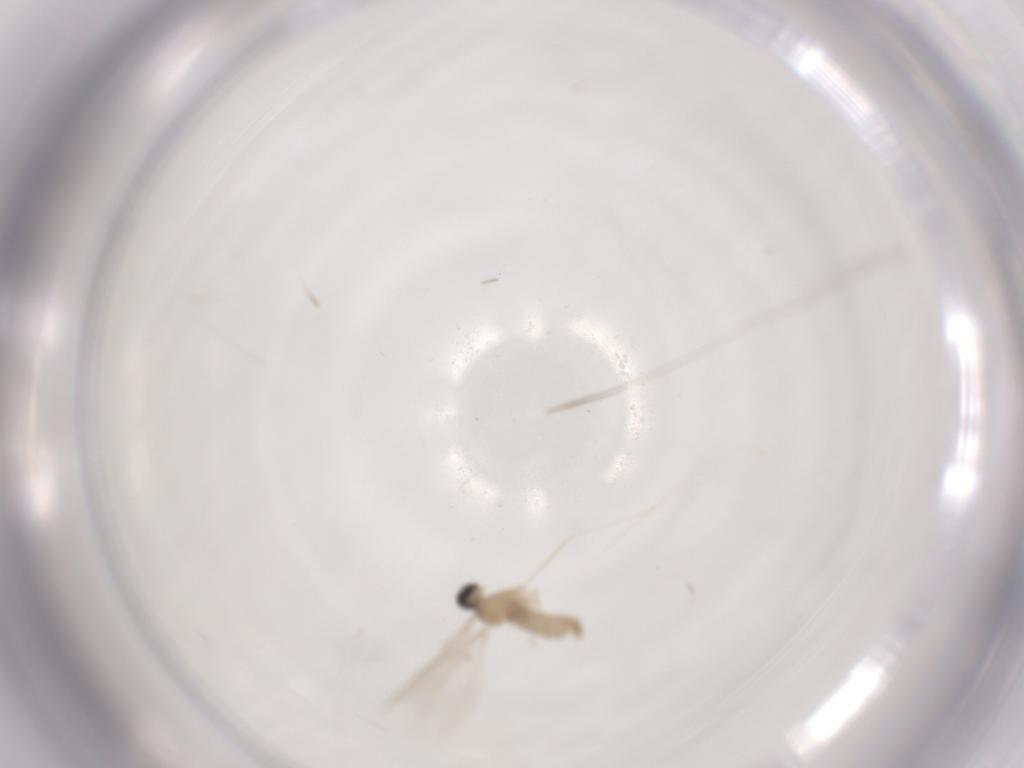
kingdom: Animalia
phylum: Arthropoda
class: Insecta
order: Diptera
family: Cecidomyiidae
